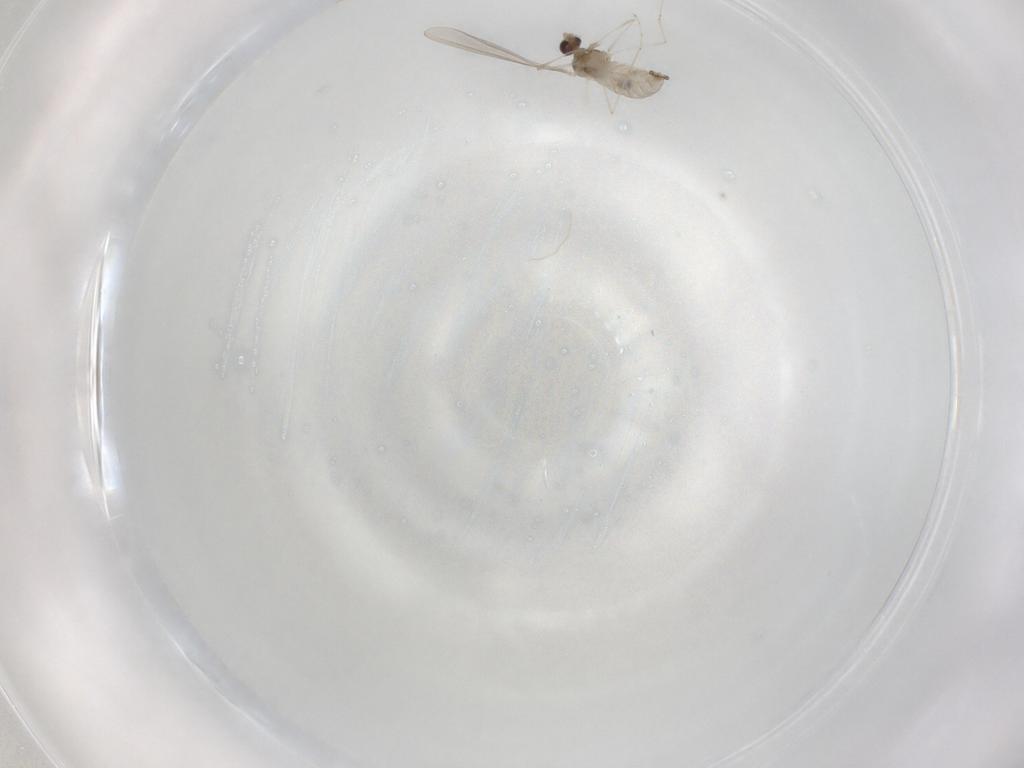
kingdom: Animalia
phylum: Arthropoda
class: Insecta
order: Diptera
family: Cecidomyiidae
